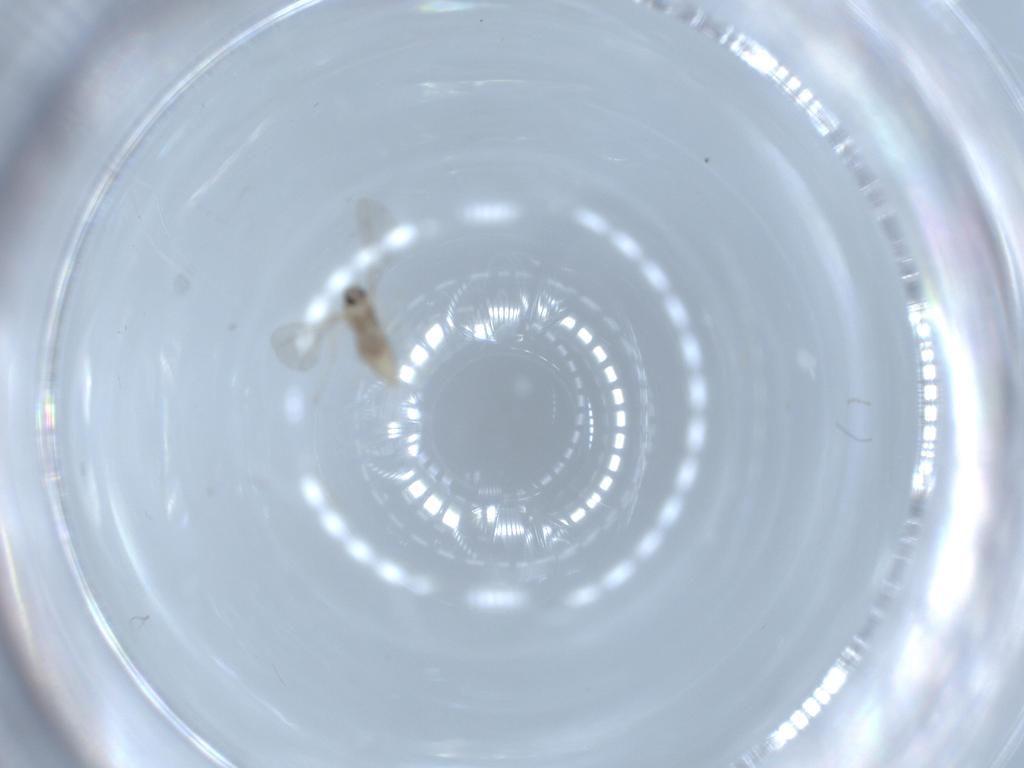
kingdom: Animalia
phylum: Arthropoda
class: Insecta
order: Diptera
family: Cecidomyiidae
